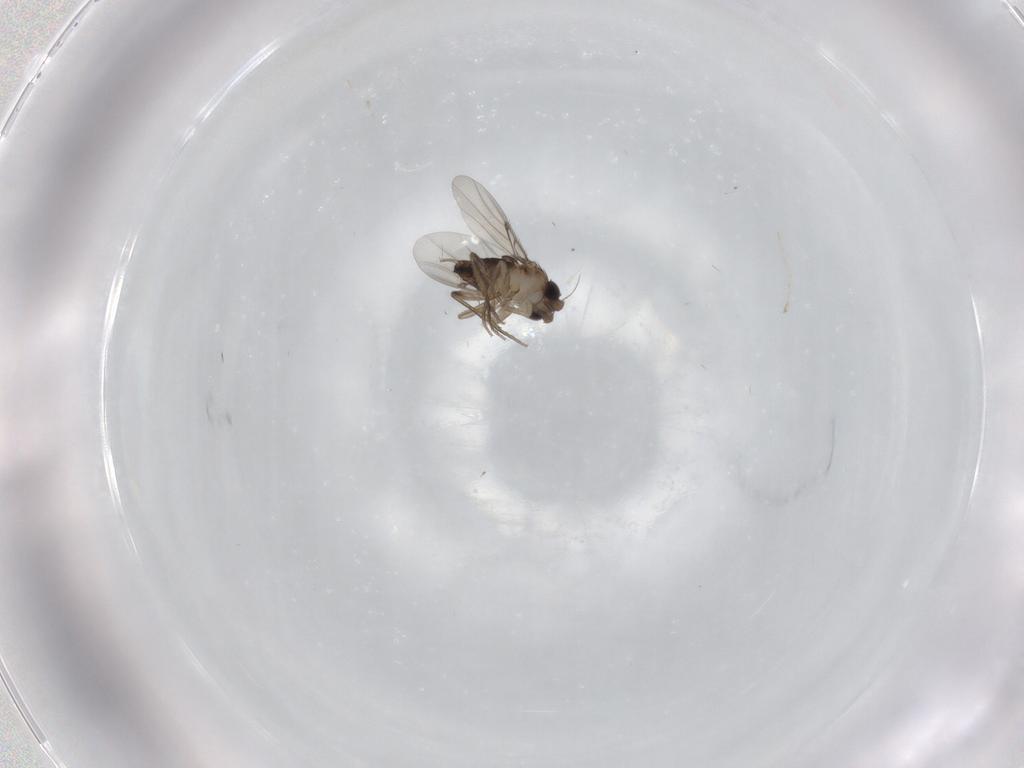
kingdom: Animalia
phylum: Arthropoda
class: Insecta
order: Diptera
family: Phoridae
